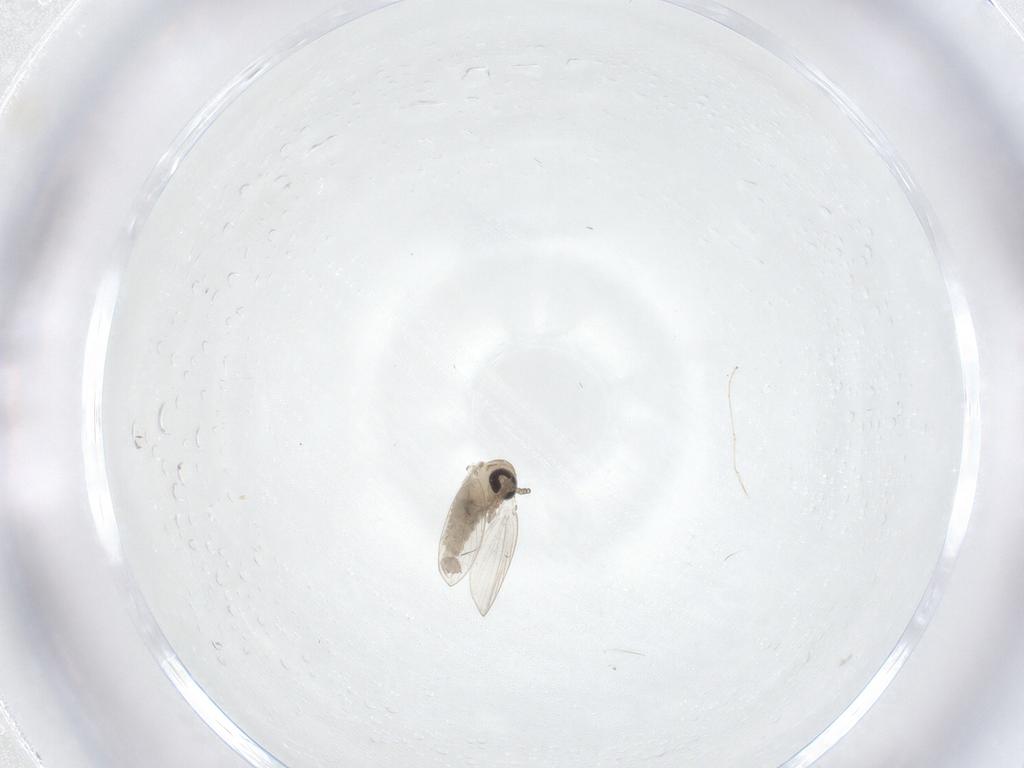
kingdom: Animalia
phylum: Arthropoda
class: Insecta
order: Diptera
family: Psychodidae
